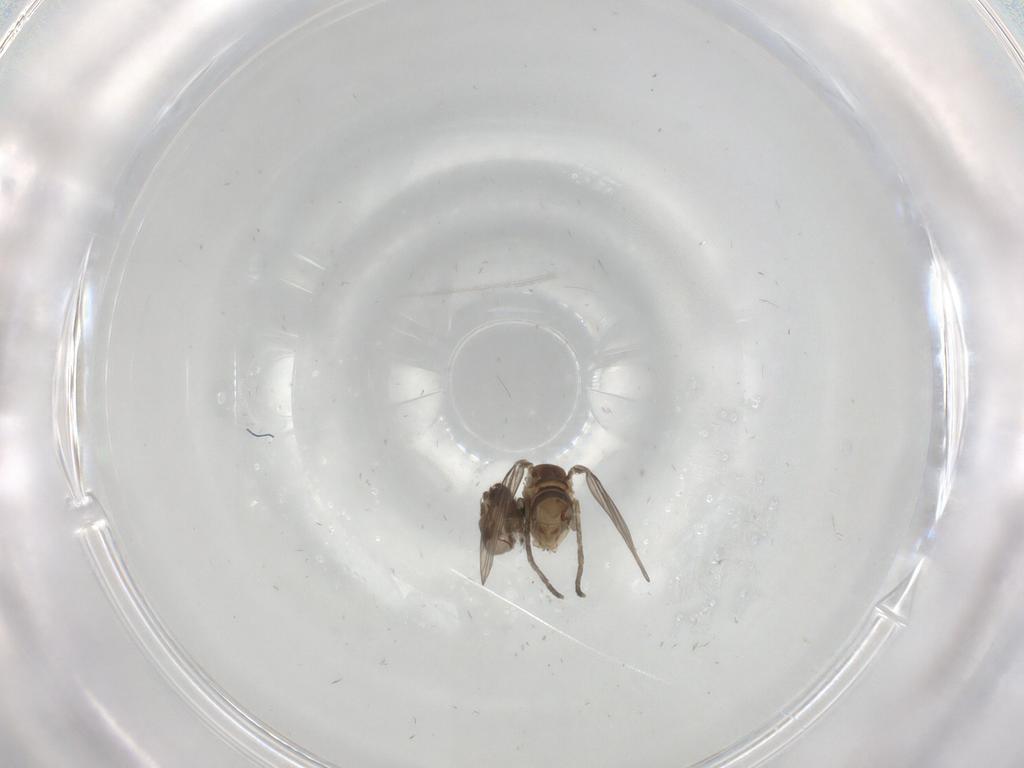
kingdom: Animalia
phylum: Arthropoda
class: Insecta
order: Diptera
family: Psychodidae
